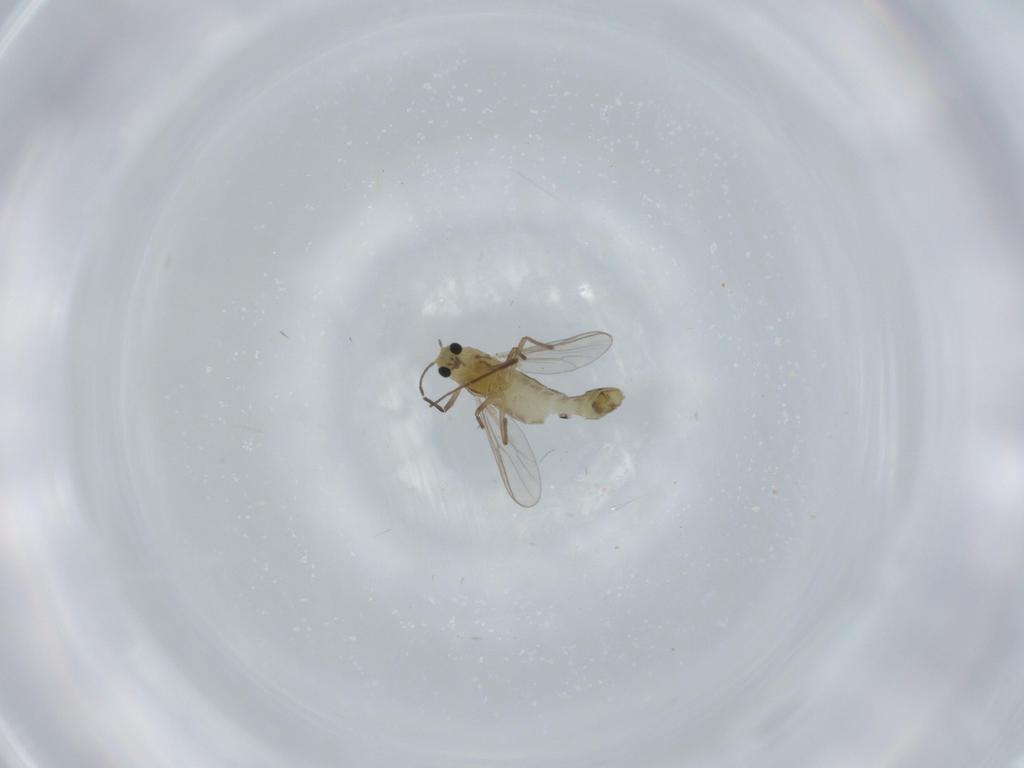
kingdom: Animalia
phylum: Arthropoda
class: Insecta
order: Diptera
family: Chironomidae
